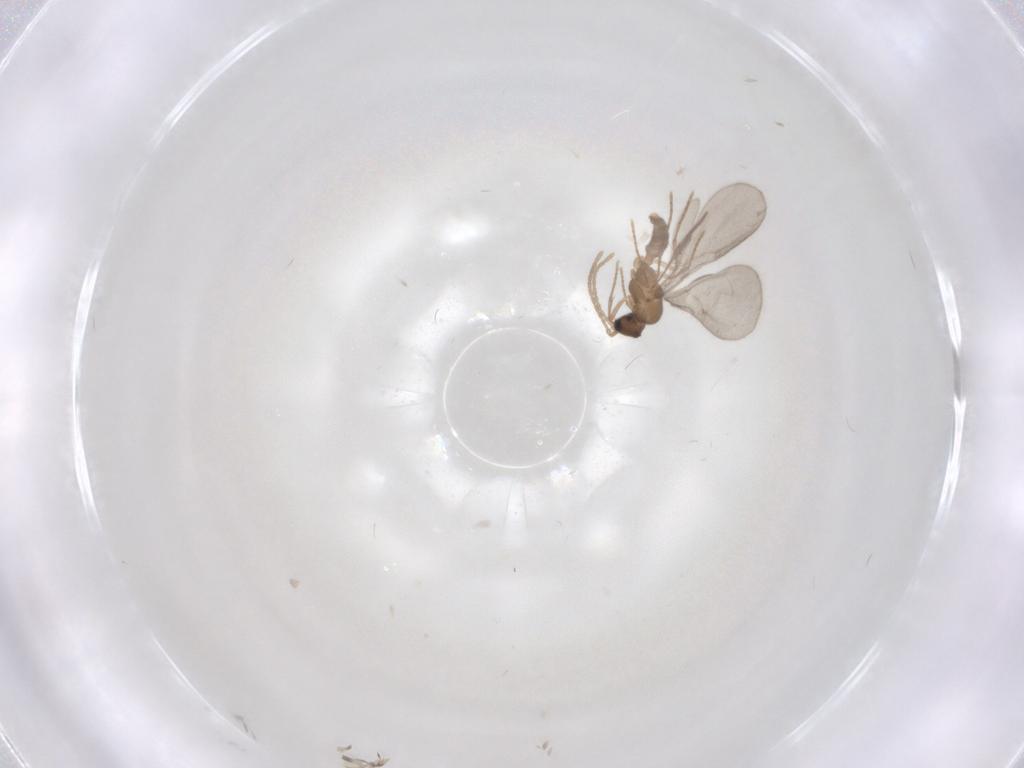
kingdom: Animalia
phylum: Arthropoda
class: Insecta
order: Hymenoptera
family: Formicidae
